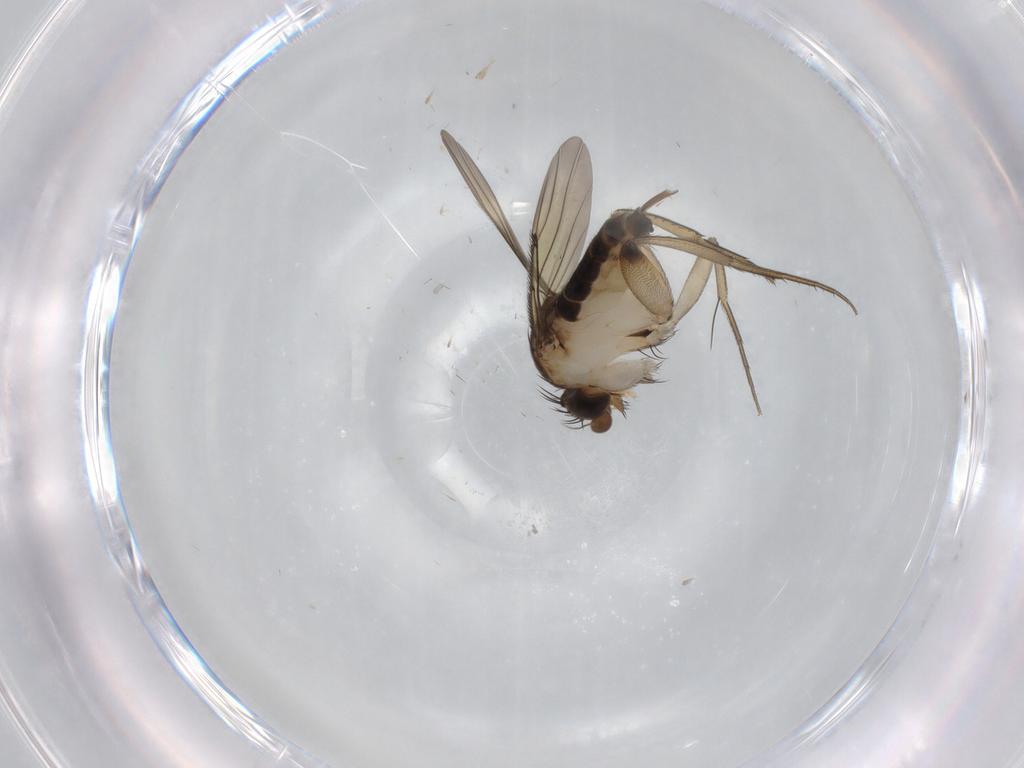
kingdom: Animalia
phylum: Arthropoda
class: Insecta
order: Diptera
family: Phoridae
